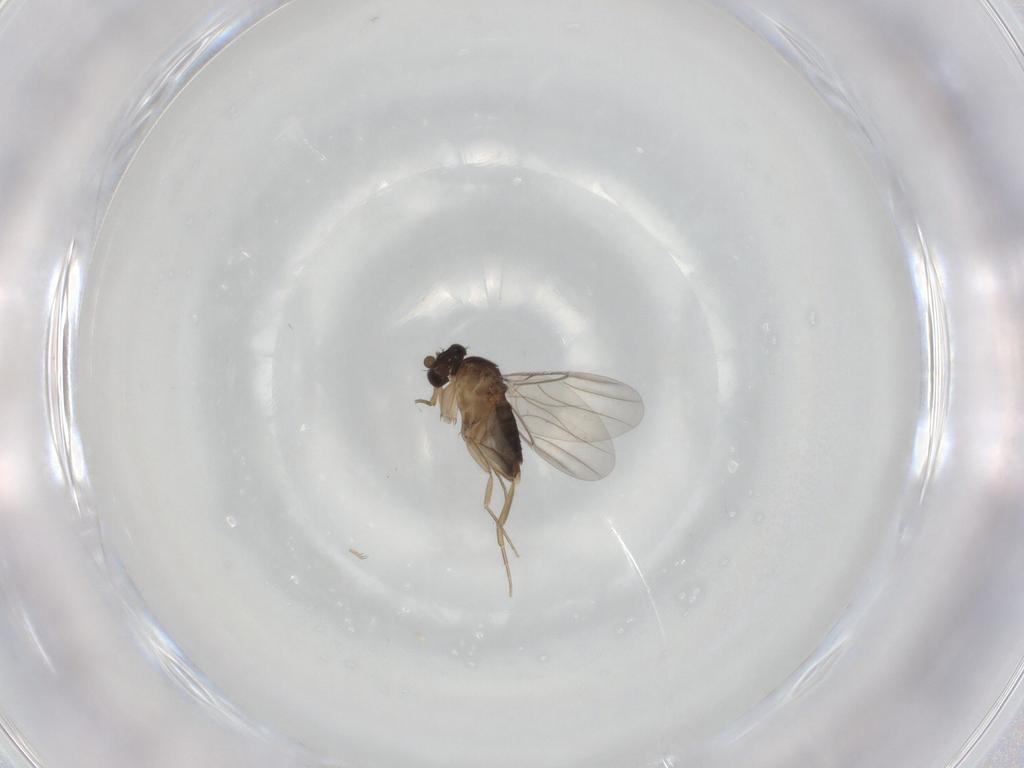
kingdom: Animalia
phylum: Arthropoda
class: Insecta
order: Diptera
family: Phoridae
